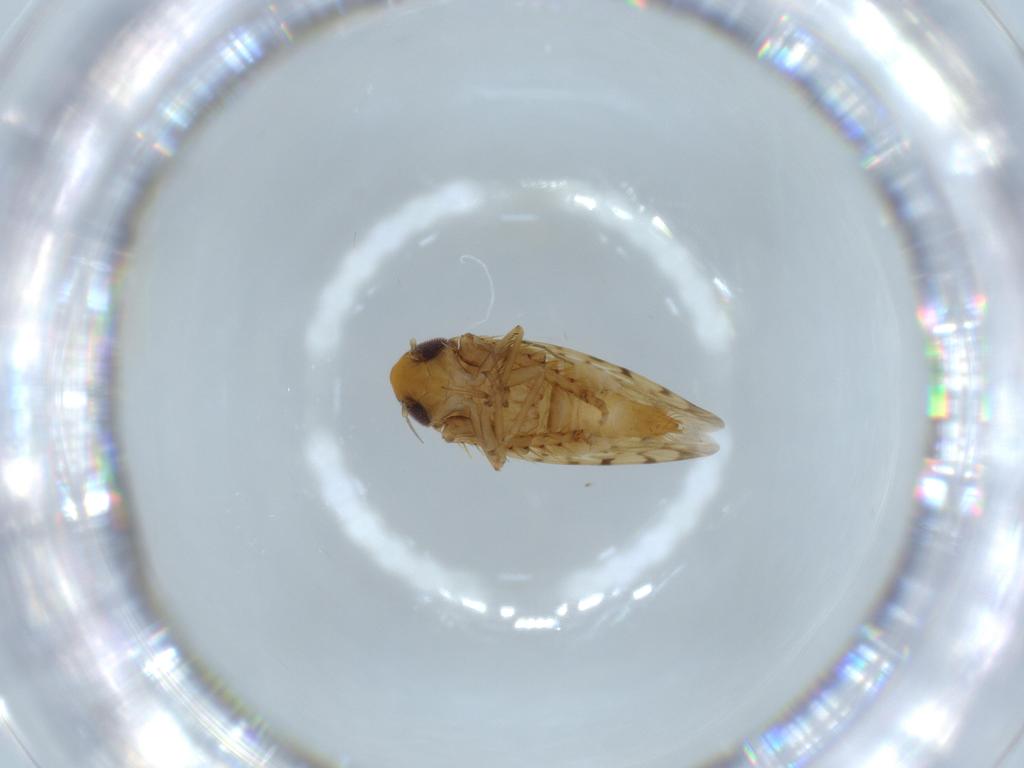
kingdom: Animalia
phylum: Arthropoda
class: Insecta
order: Hemiptera
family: Cicadellidae
